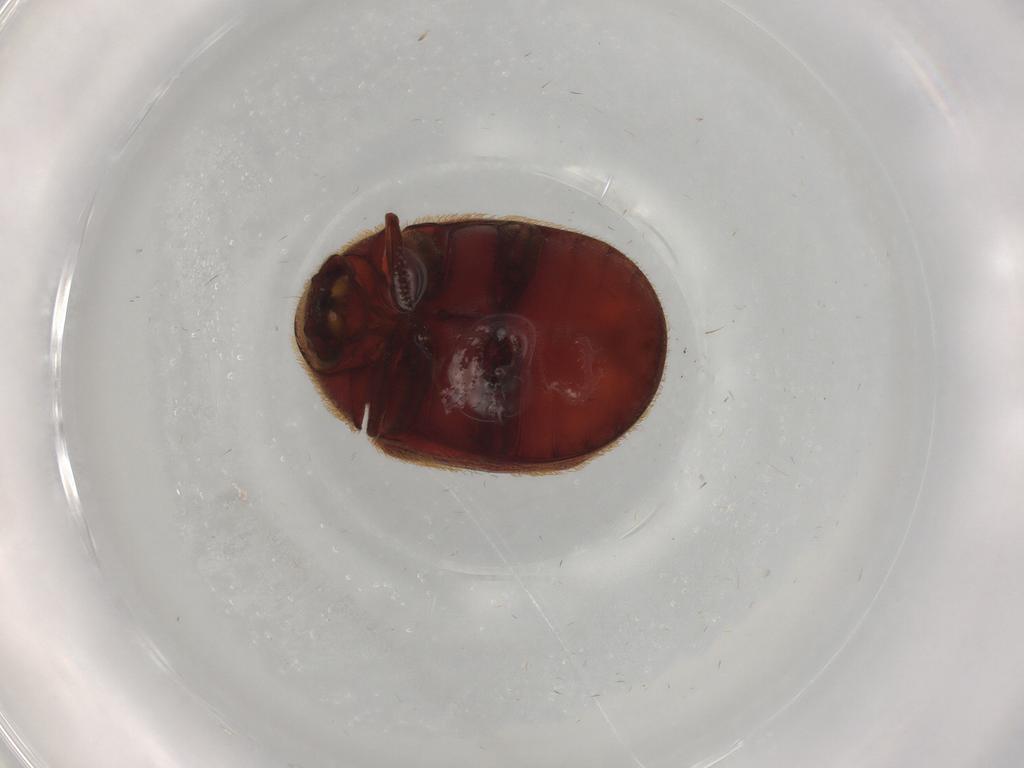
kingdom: Animalia
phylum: Arthropoda
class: Insecta
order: Coleoptera
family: Ptinidae
